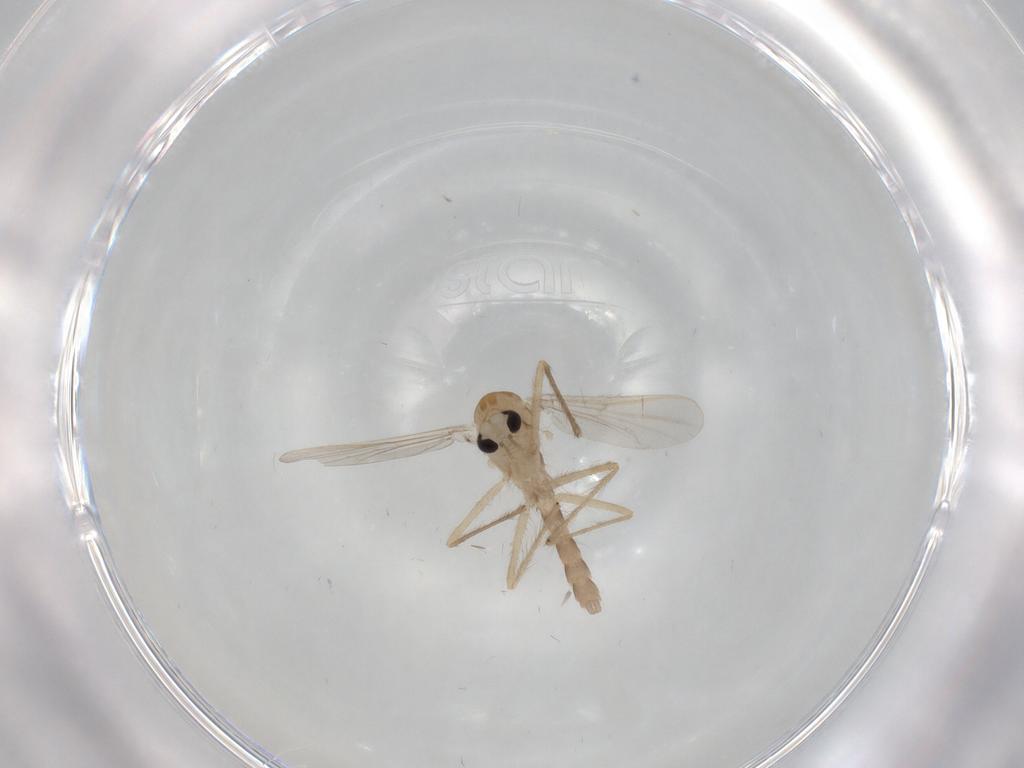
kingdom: Animalia
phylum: Arthropoda
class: Insecta
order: Diptera
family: Chironomidae
